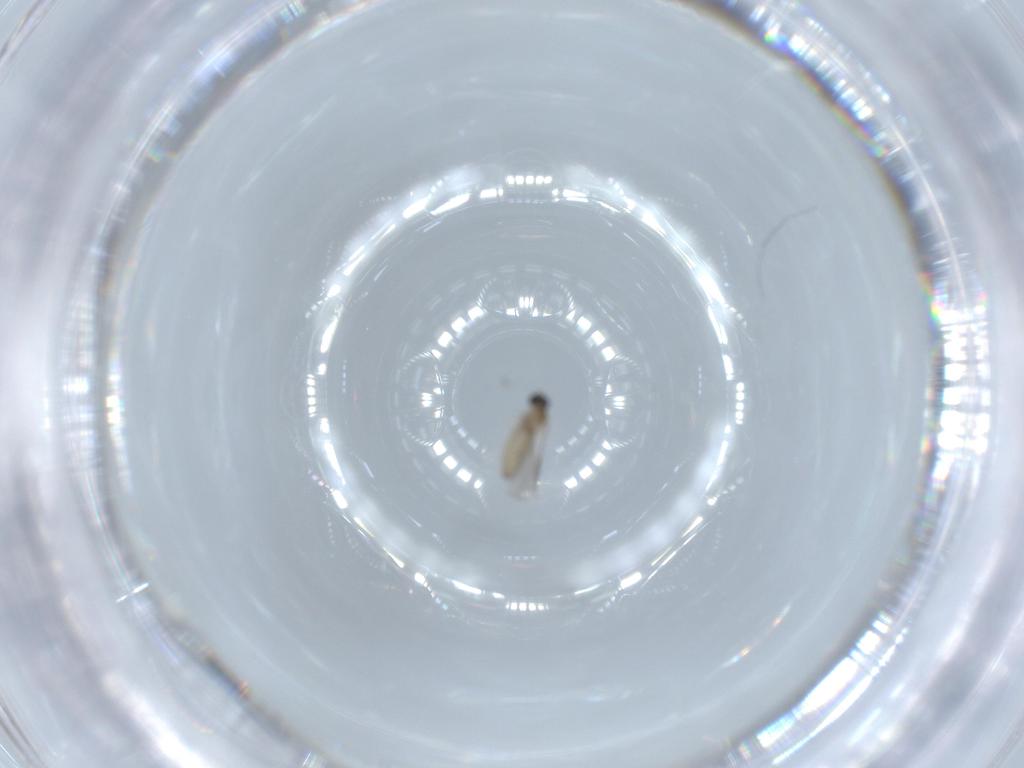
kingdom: Animalia
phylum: Arthropoda
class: Insecta
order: Diptera
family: Cecidomyiidae
